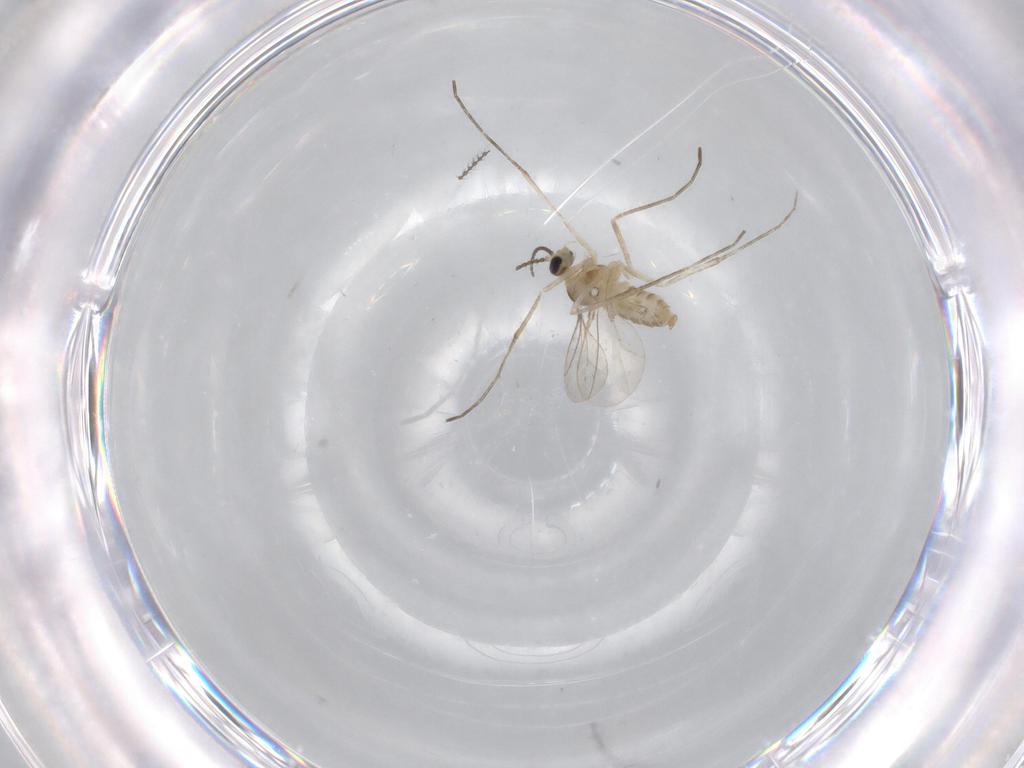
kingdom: Animalia
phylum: Arthropoda
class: Insecta
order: Diptera
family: Cecidomyiidae
